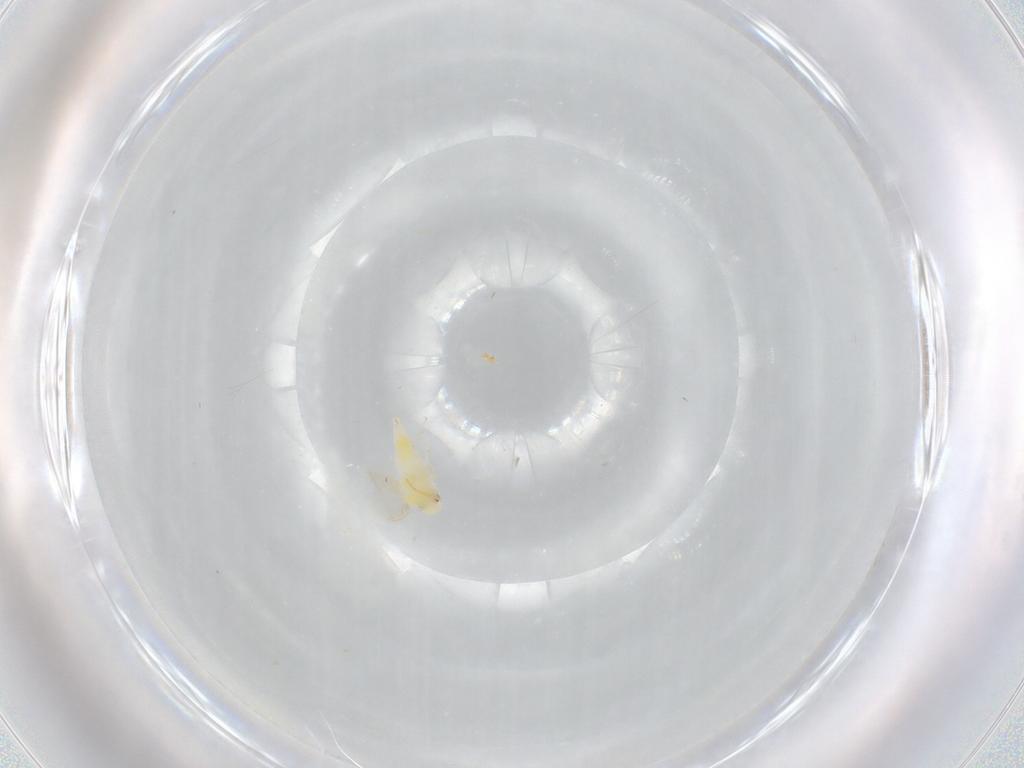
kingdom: Animalia
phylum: Arthropoda
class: Insecta
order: Hemiptera
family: Aleyrodidae
